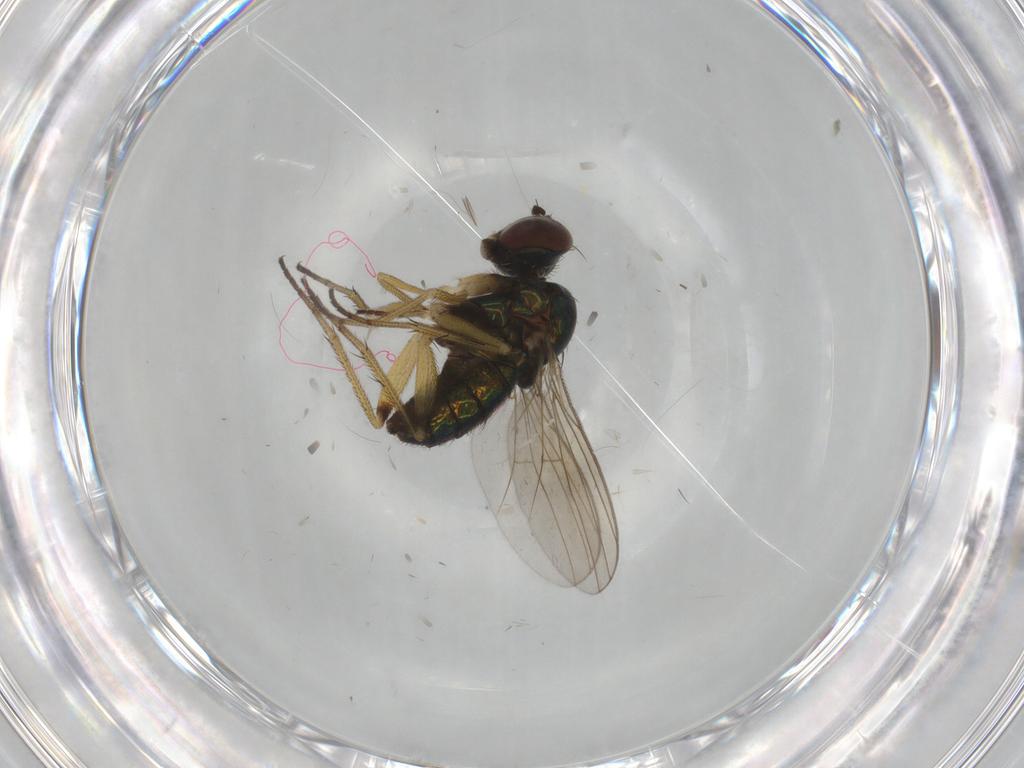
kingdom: Animalia
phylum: Arthropoda
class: Insecta
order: Diptera
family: Dolichopodidae
